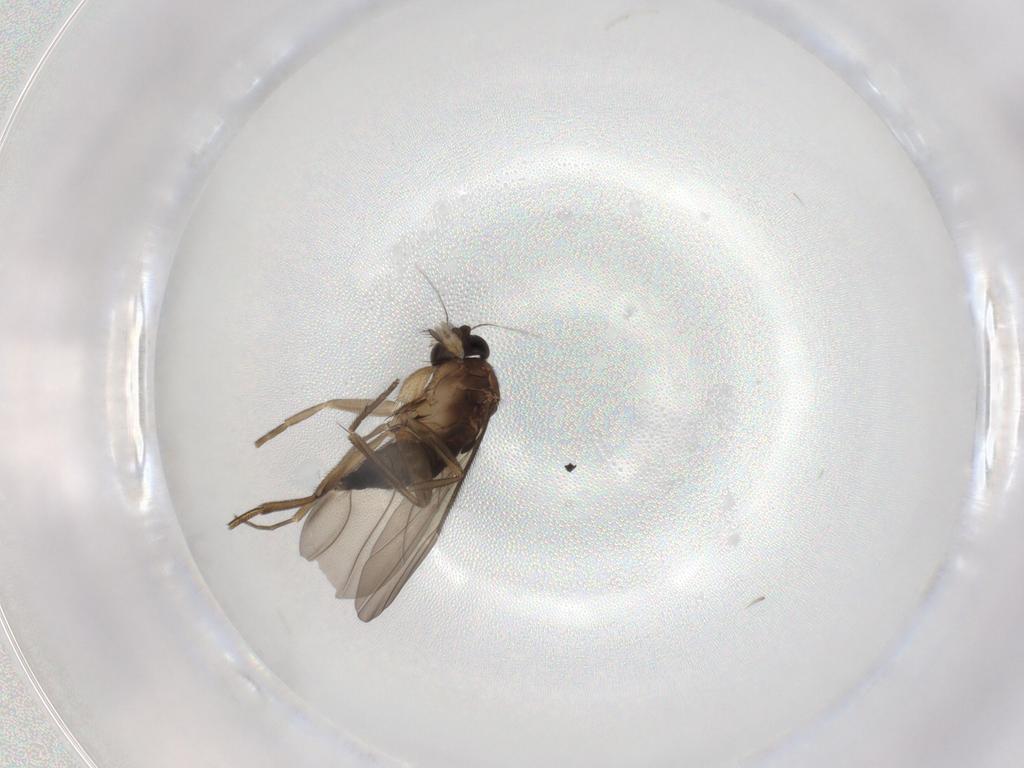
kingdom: Animalia
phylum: Arthropoda
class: Insecta
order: Diptera
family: Phoridae
